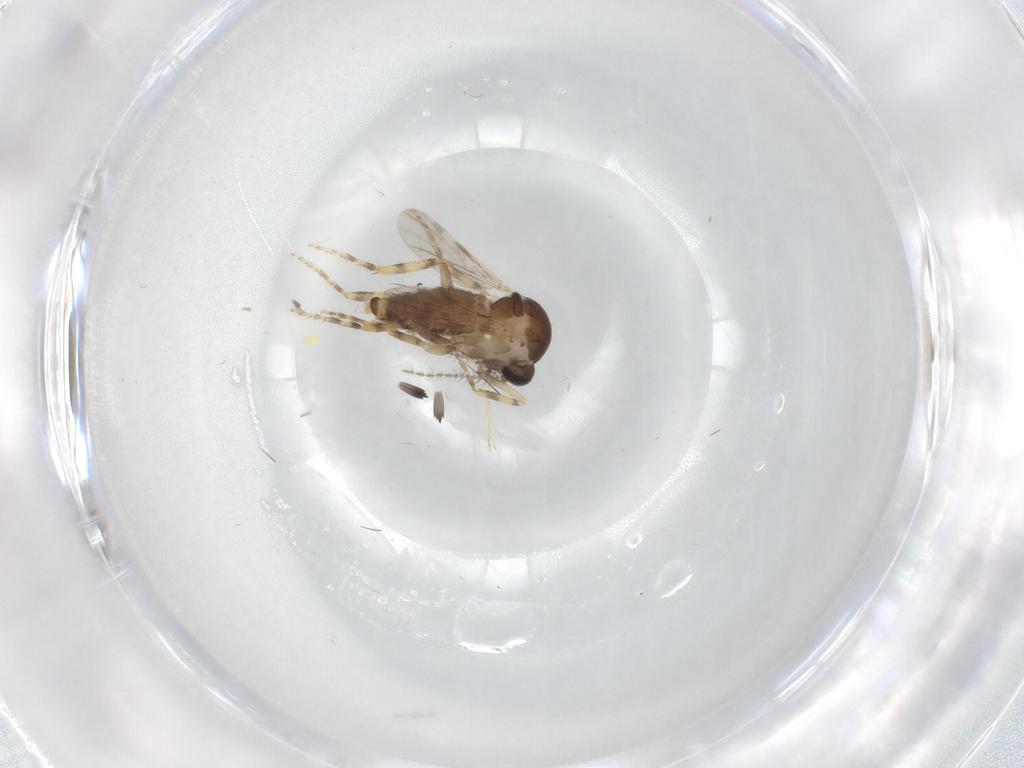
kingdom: Animalia
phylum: Arthropoda
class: Insecta
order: Diptera
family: Ceratopogonidae
